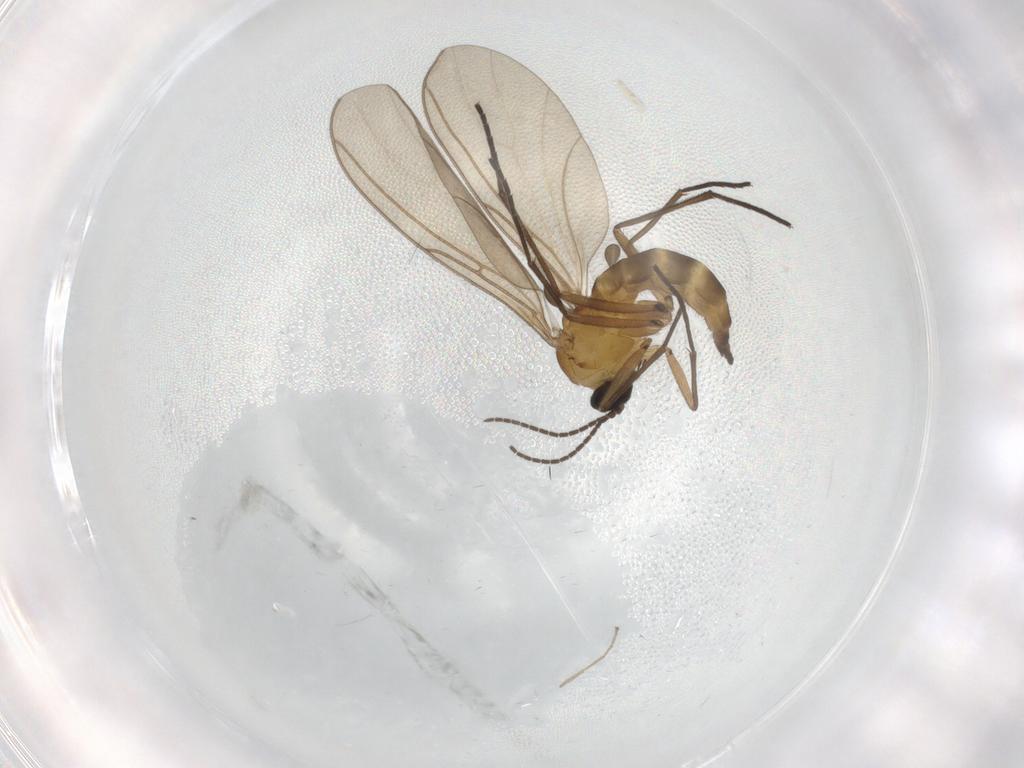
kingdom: Animalia
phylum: Arthropoda
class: Insecta
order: Diptera
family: Sciaridae
